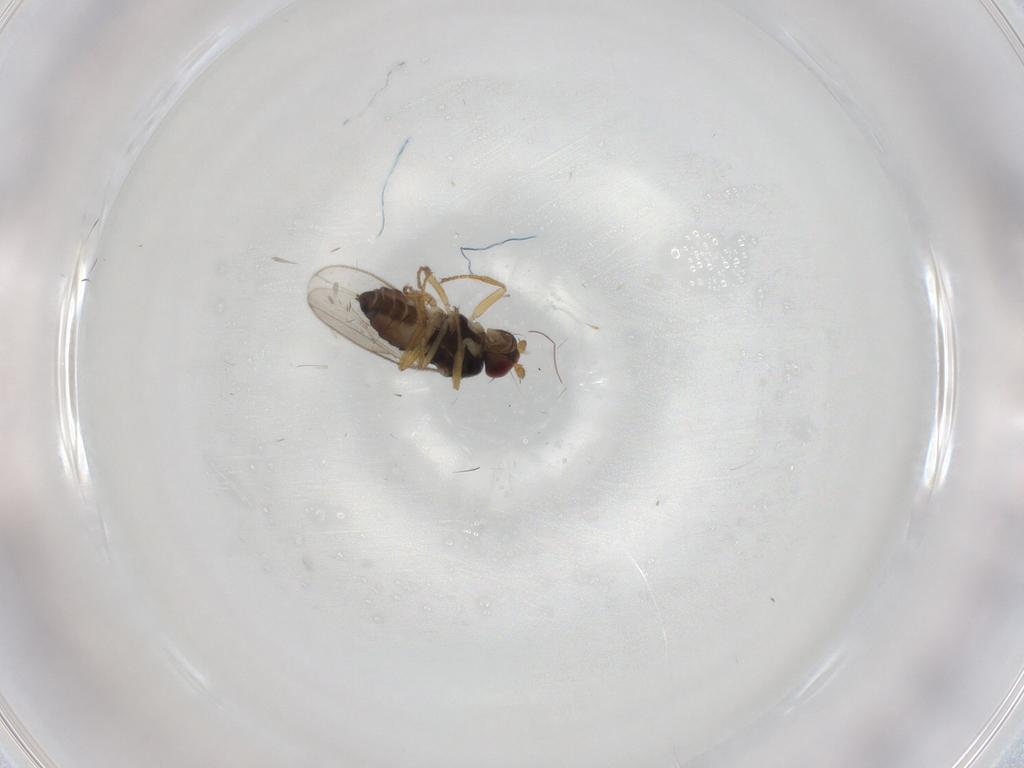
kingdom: Animalia
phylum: Arthropoda
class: Insecta
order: Diptera
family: Sphaeroceridae
